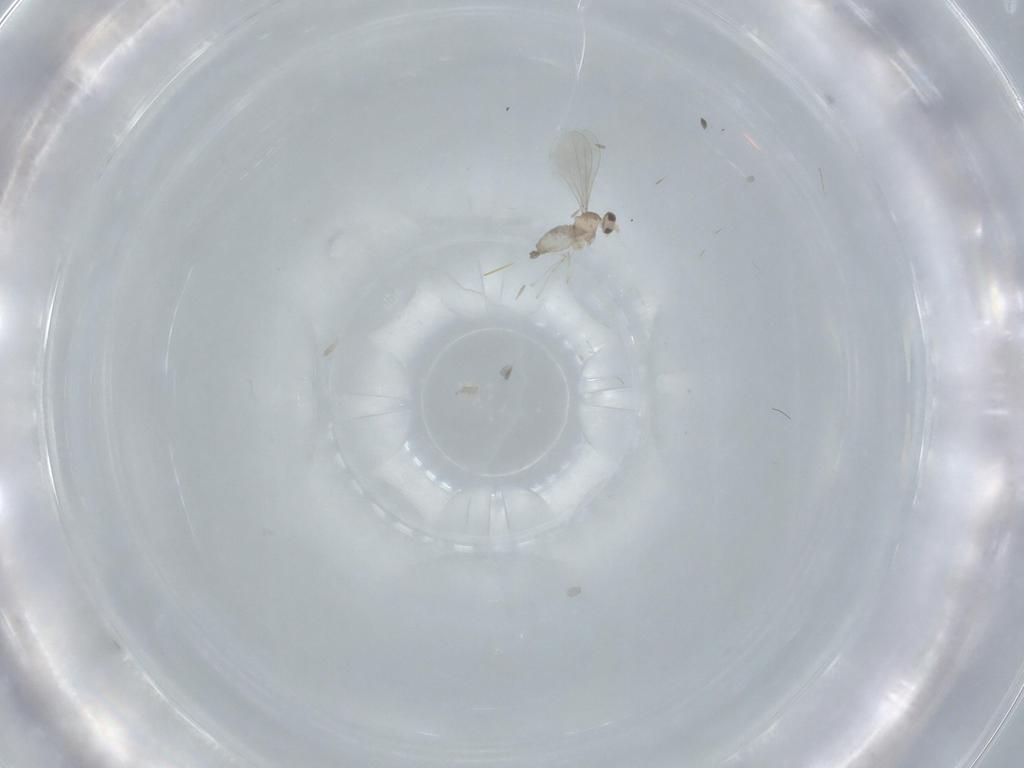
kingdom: Animalia
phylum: Arthropoda
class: Insecta
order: Diptera
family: Cecidomyiidae
